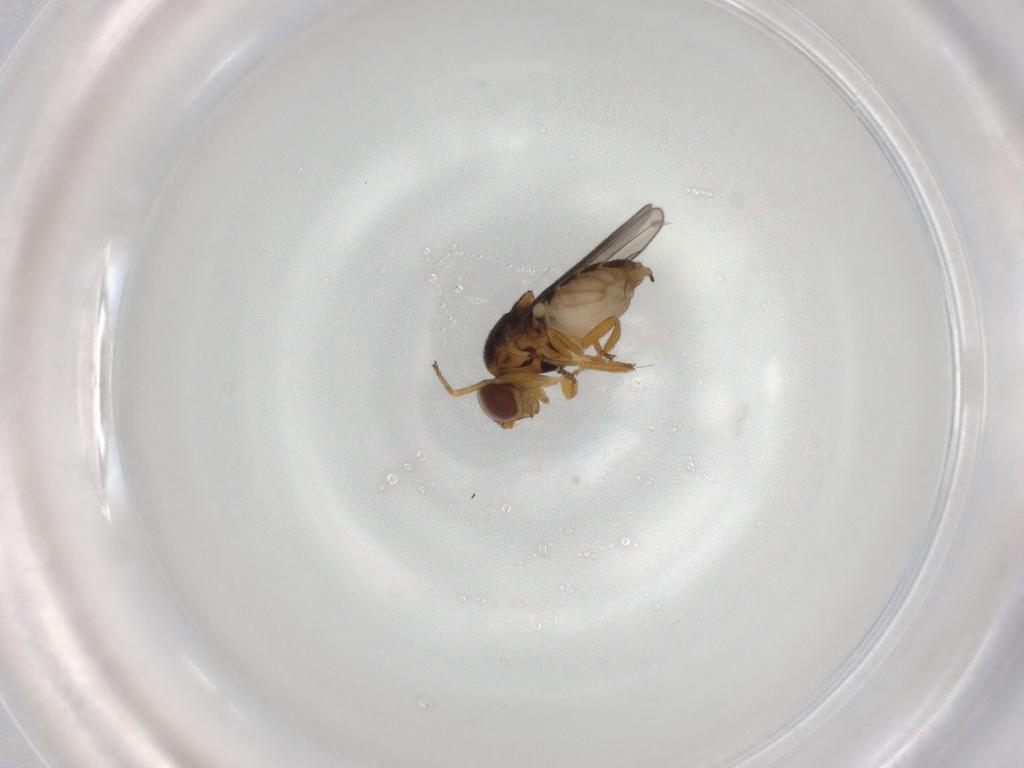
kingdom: Animalia
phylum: Arthropoda
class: Insecta
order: Diptera
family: Chloropidae
